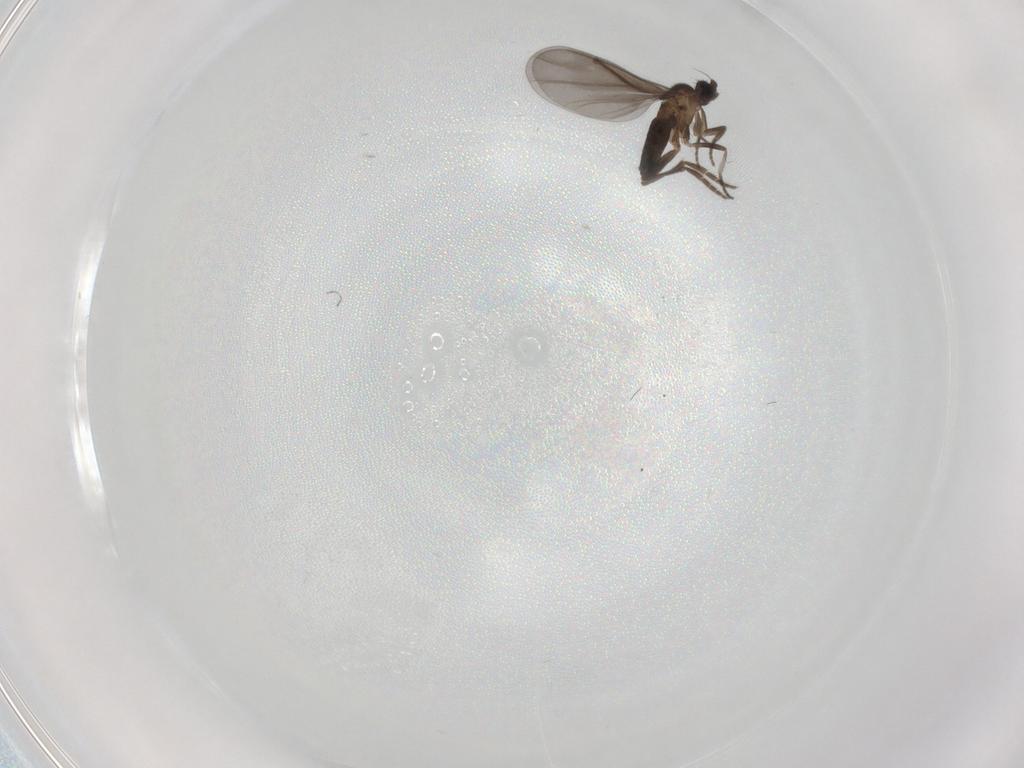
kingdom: Animalia
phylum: Arthropoda
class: Insecta
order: Diptera
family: Phoridae
